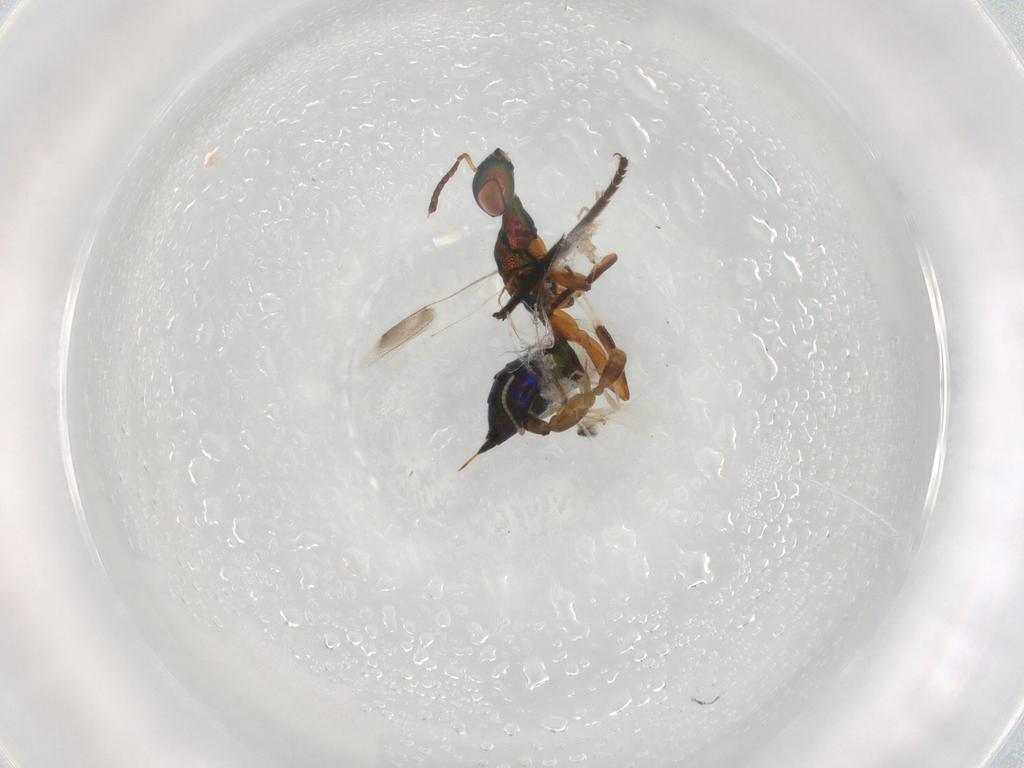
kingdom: Animalia
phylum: Arthropoda
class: Insecta
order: Hymenoptera
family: Cleonyminae
